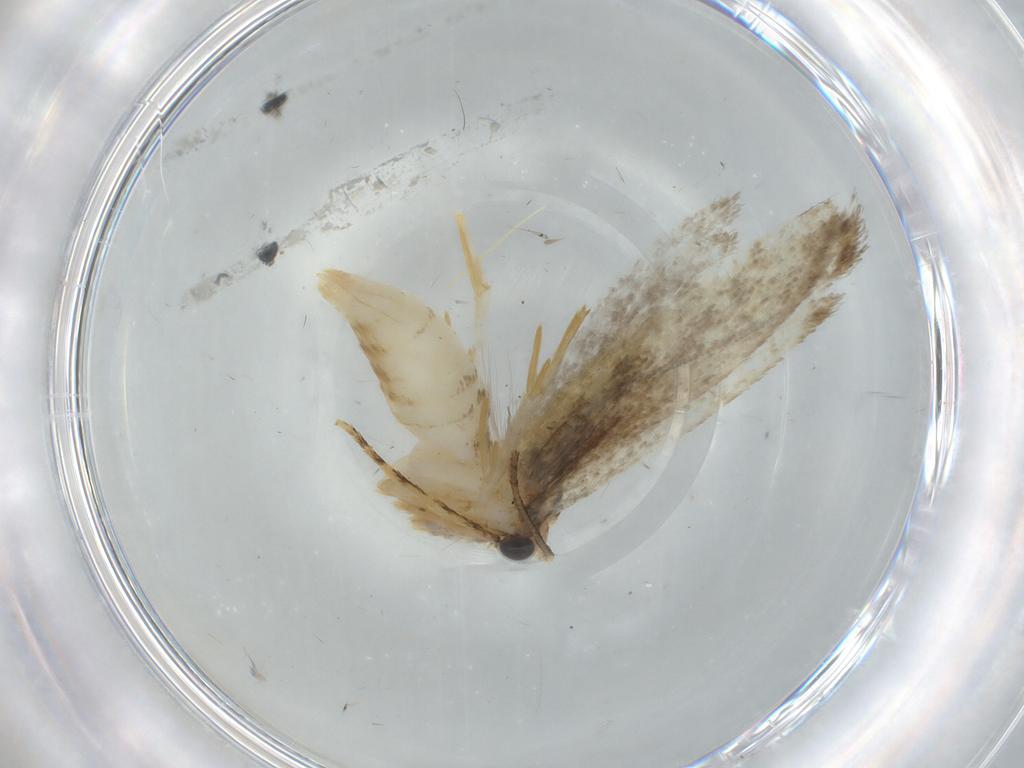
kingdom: Animalia
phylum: Arthropoda
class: Insecta
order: Lepidoptera
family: Tineidae
